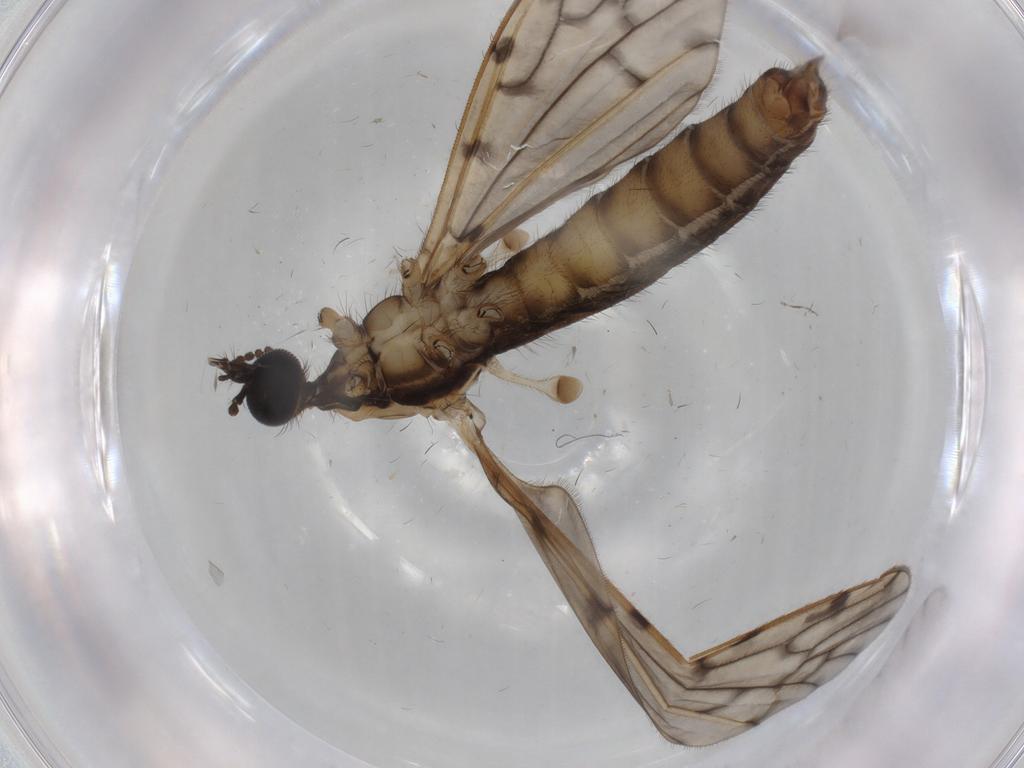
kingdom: Animalia
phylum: Arthropoda
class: Insecta
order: Diptera
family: Limoniidae
